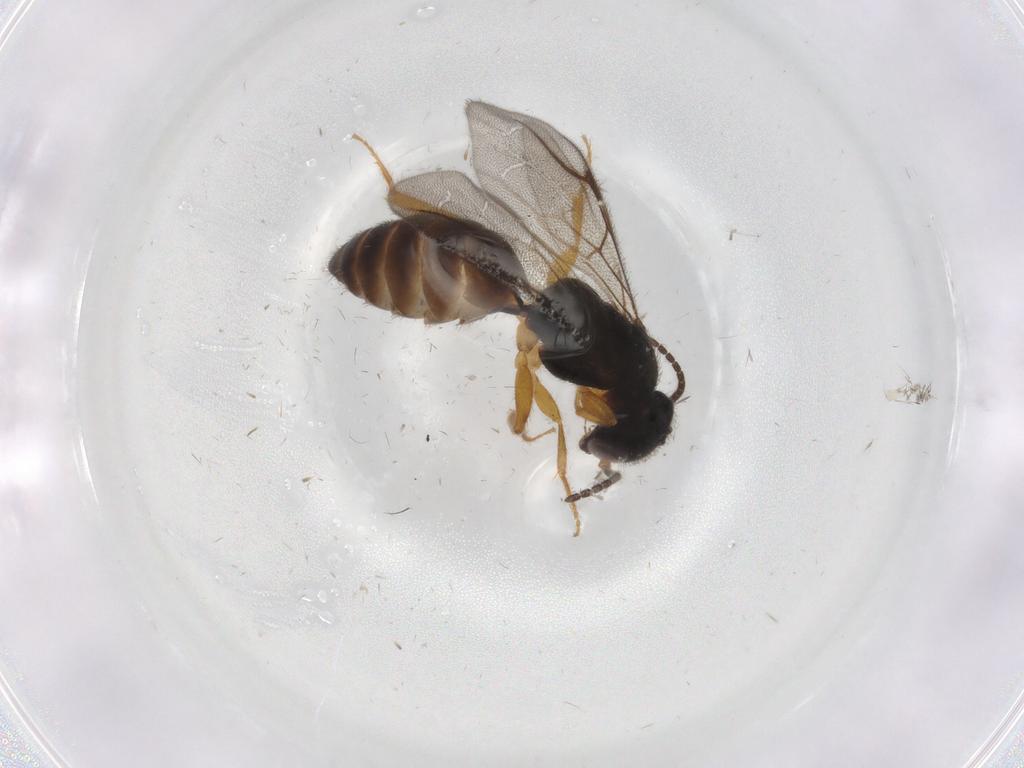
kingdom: Animalia
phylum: Arthropoda
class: Insecta
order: Hymenoptera
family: Bethylidae
